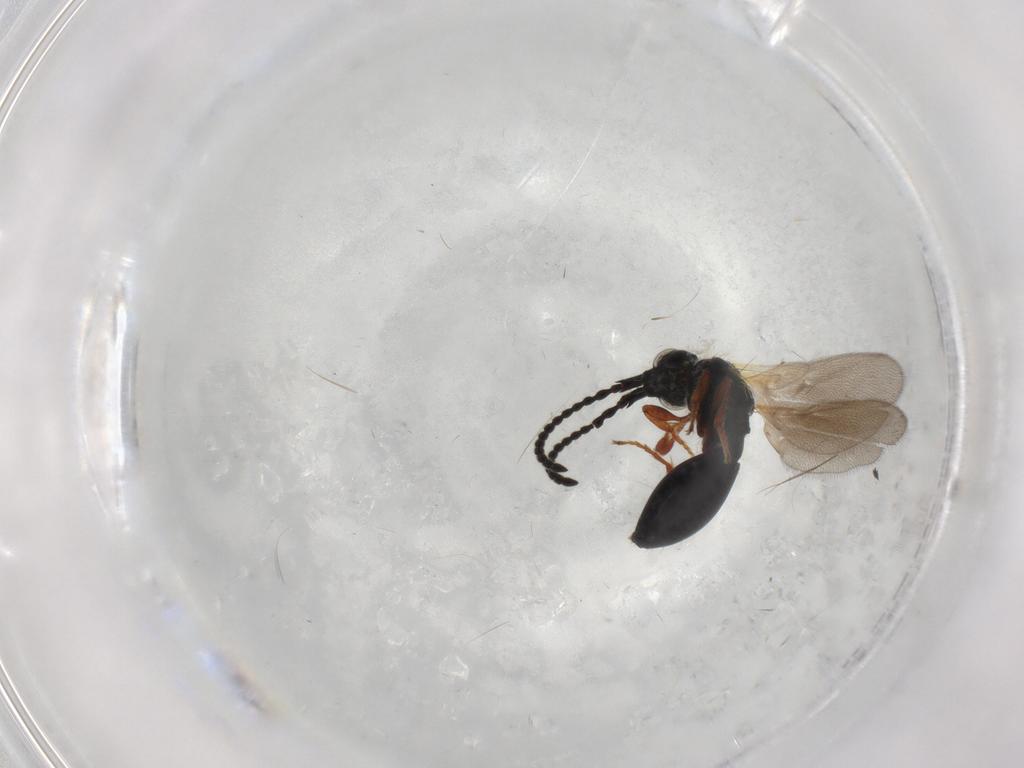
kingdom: Animalia
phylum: Arthropoda
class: Insecta
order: Hymenoptera
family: Diapriidae
